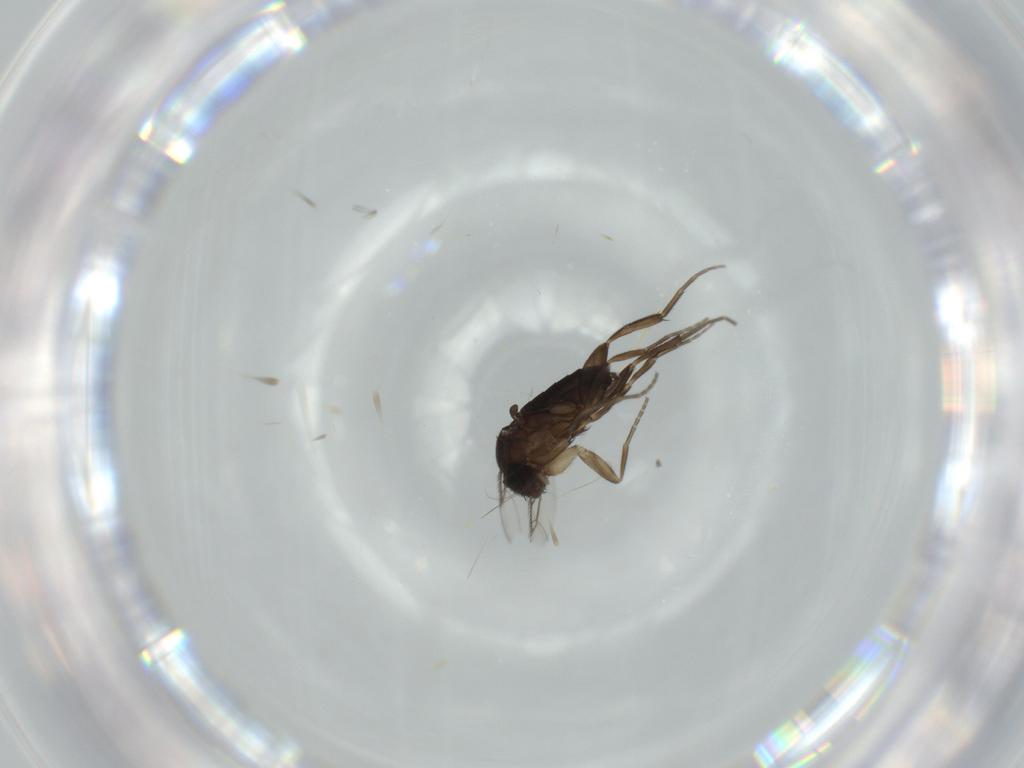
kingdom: Animalia
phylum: Arthropoda
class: Insecta
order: Diptera
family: Phoridae
